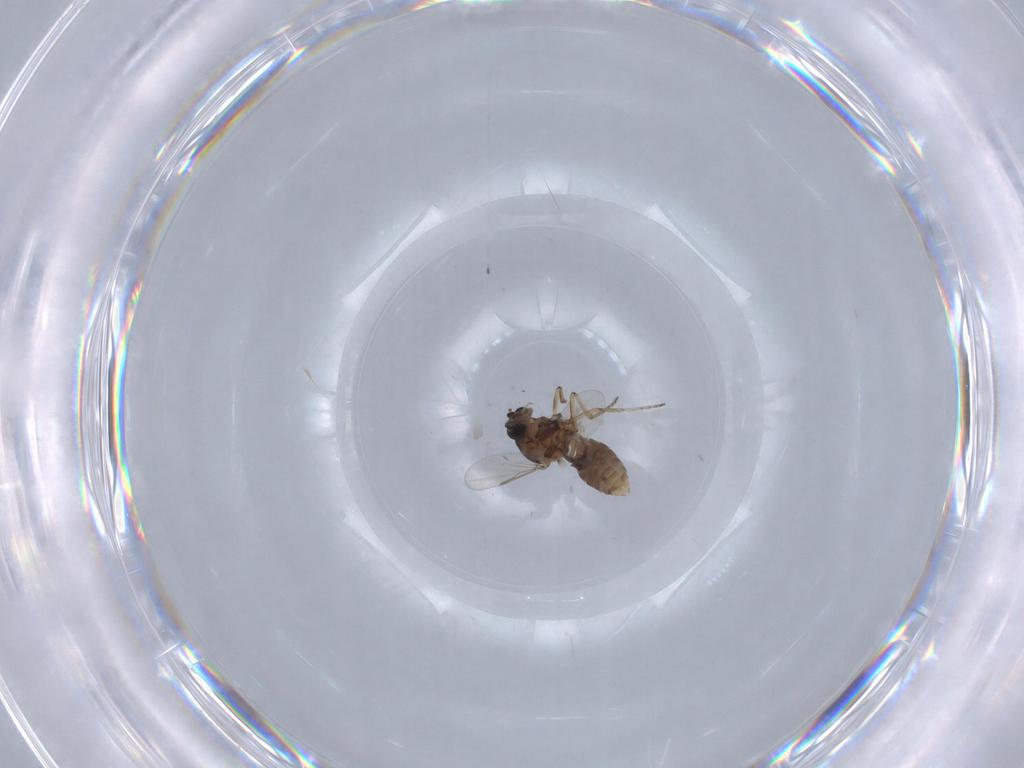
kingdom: Animalia
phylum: Arthropoda
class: Insecta
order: Diptera
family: Ceratopogonidae
